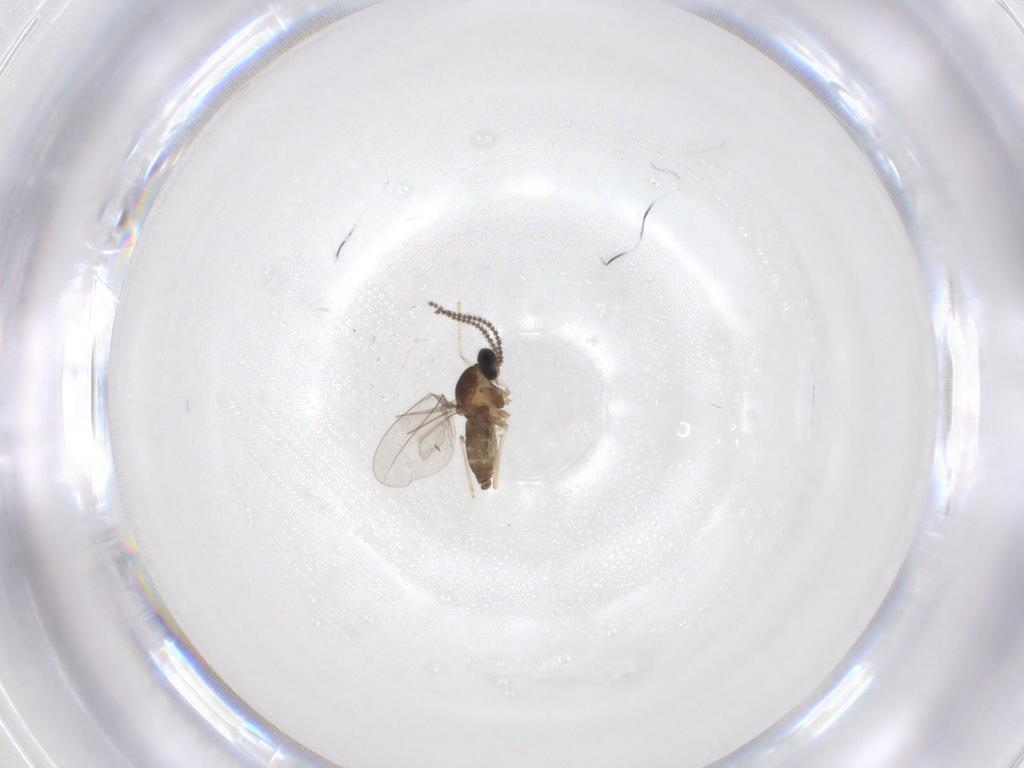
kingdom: Animalia
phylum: Arthropoda
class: Insecta
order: Diptera
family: Cecidomyiidae
